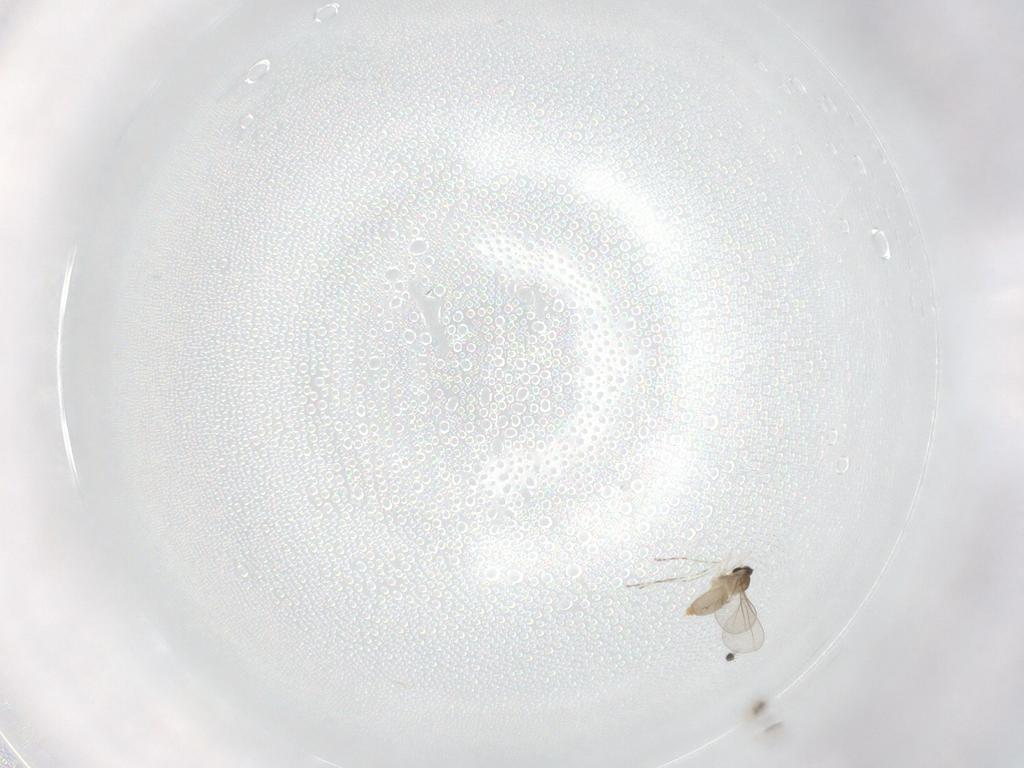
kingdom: Animalia
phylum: Arthropoda
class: Insecta
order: Diptera
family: Cecidomyiidae
